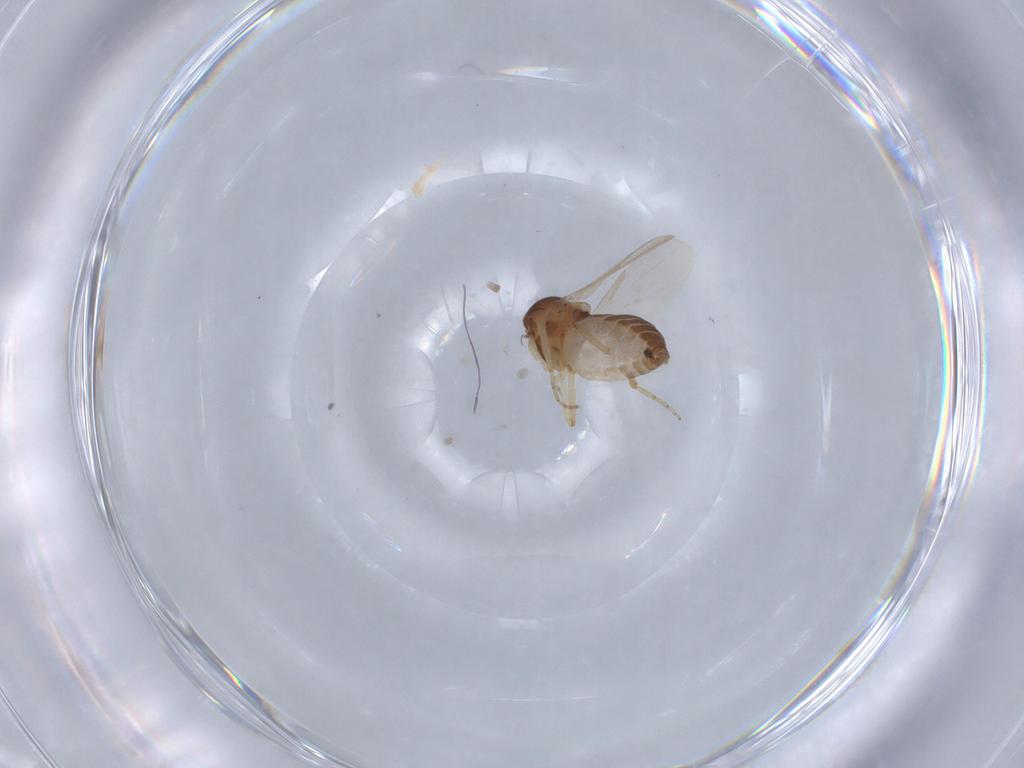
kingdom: Animalia
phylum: Arthropoda
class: Insecta
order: Diptera
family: Ceratopogonidae
